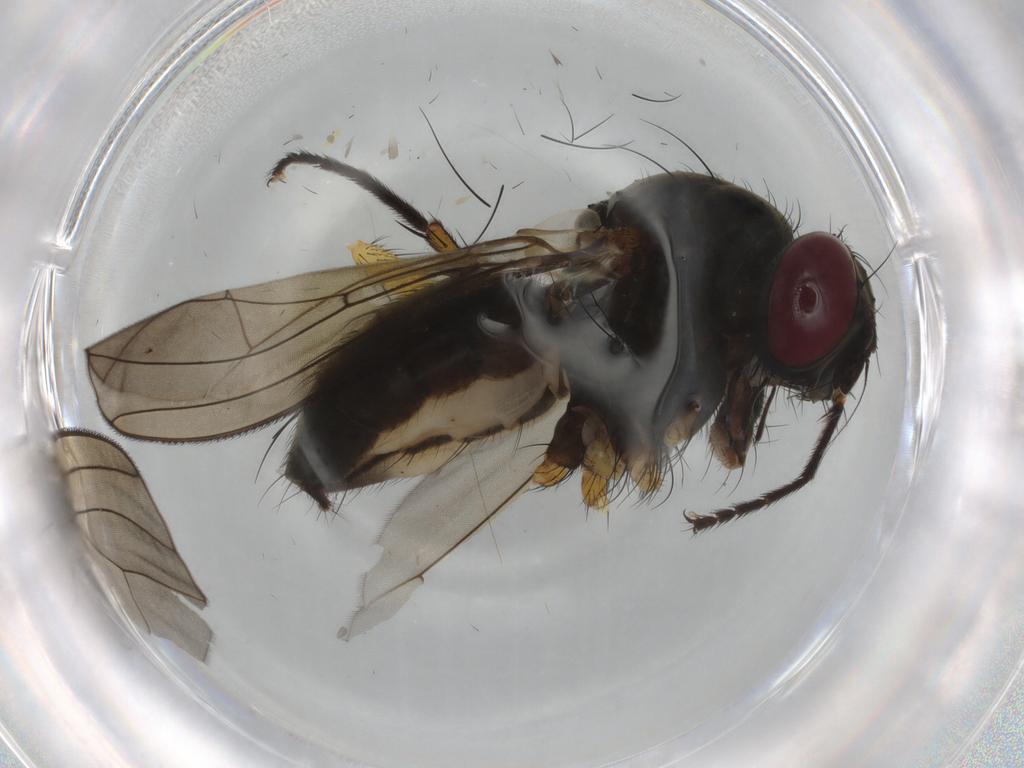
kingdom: Animalia
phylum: Arthropoda
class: Insecta
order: Diptera
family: Muscidae
